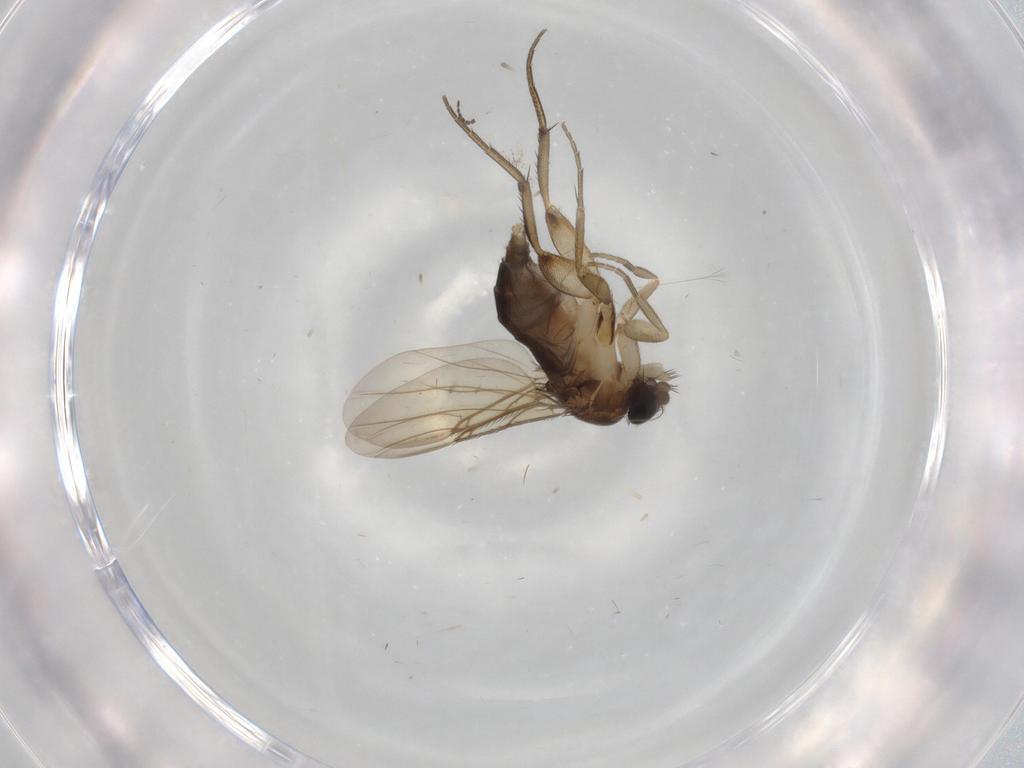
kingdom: Animalia
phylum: Arthropoda
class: Insecta
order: Diptera
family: Phoridae
